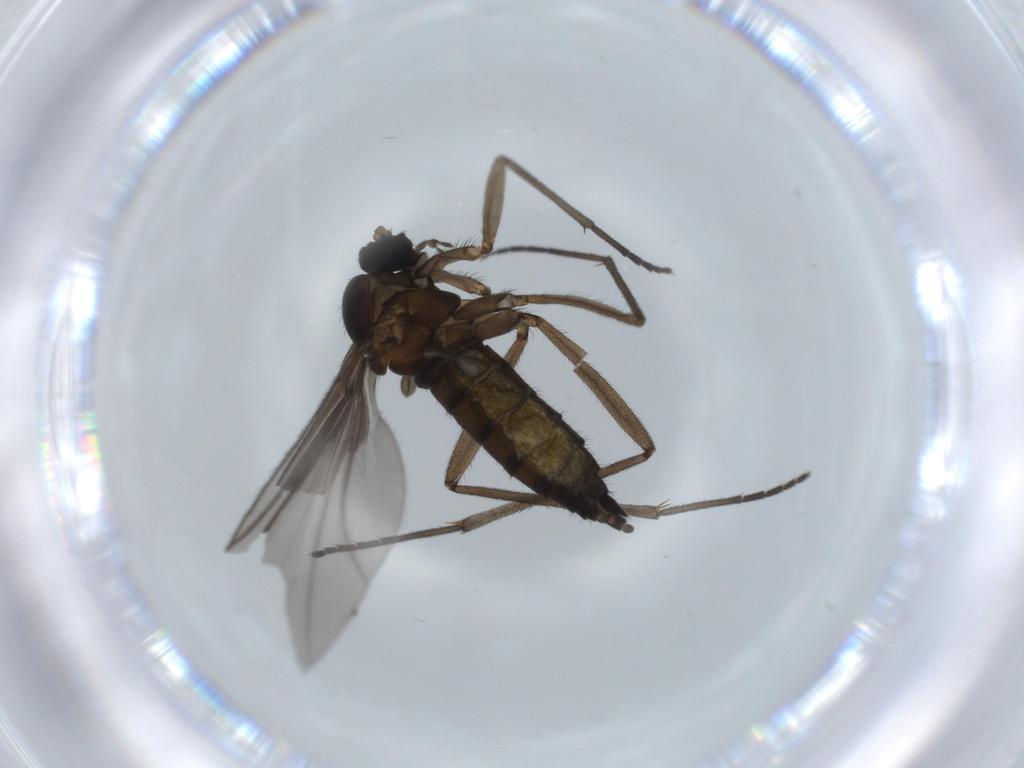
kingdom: Animalia
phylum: Arthropoda
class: Insecta
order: Diptera
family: Sciaridae
